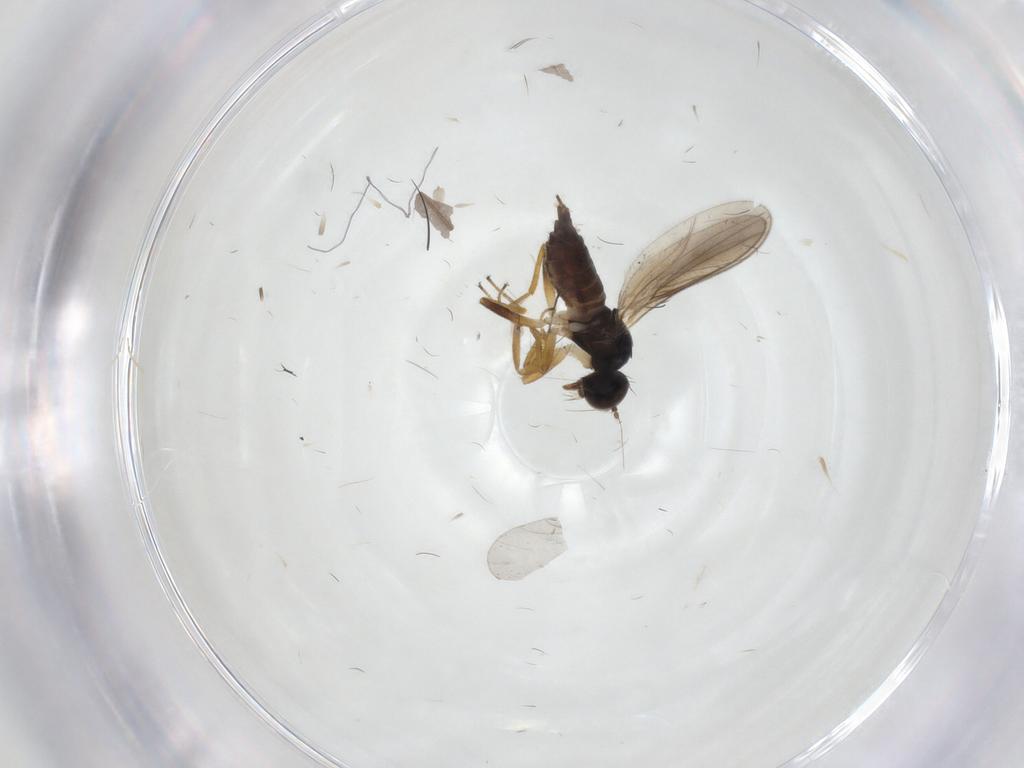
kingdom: Animalia
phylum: Arthropoda
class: Insecta
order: Diptera
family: Hybotidae
